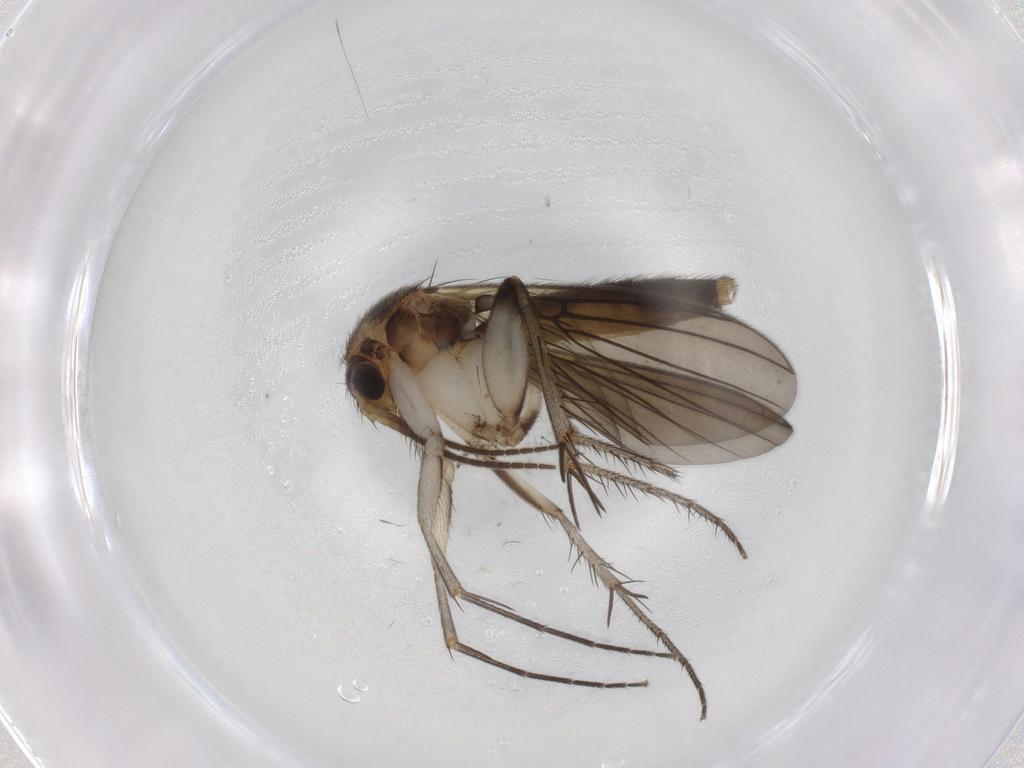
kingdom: Animalia
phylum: Arthropoda
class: Insecta
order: Diptera
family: Mycetophilidae
